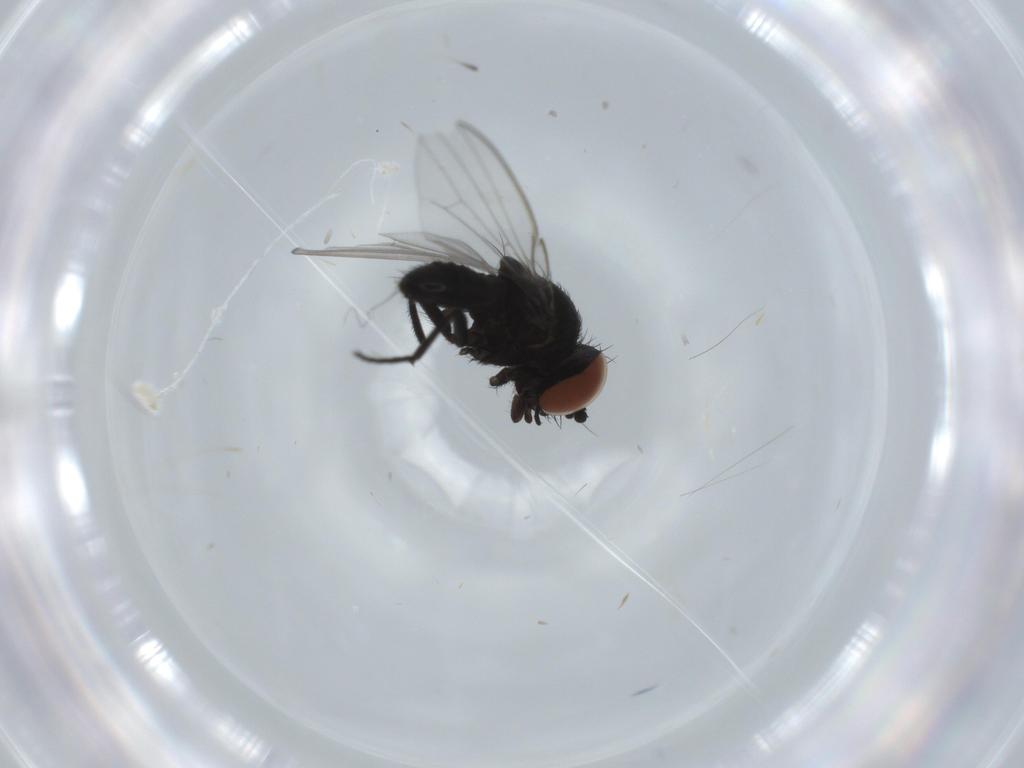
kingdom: Animalia
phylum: Arthropoda
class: Insecta
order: Diptera
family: Milichiidae
